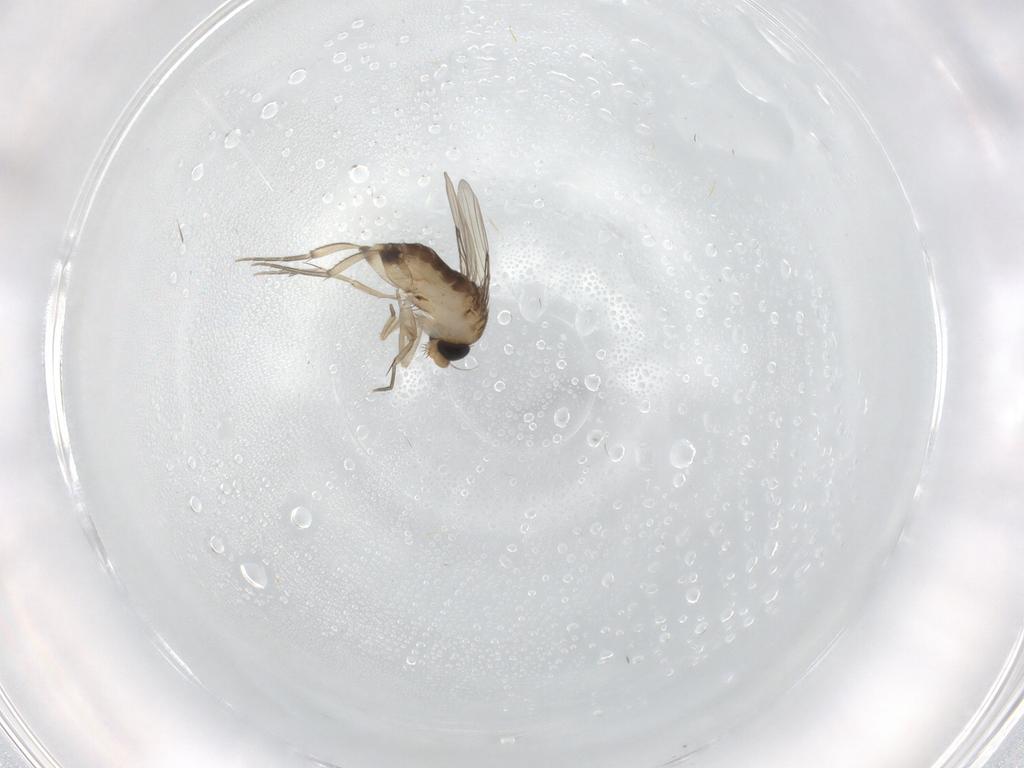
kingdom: Animalia
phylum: Arthropoda
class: Insecta
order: Diptera
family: Phoridae
